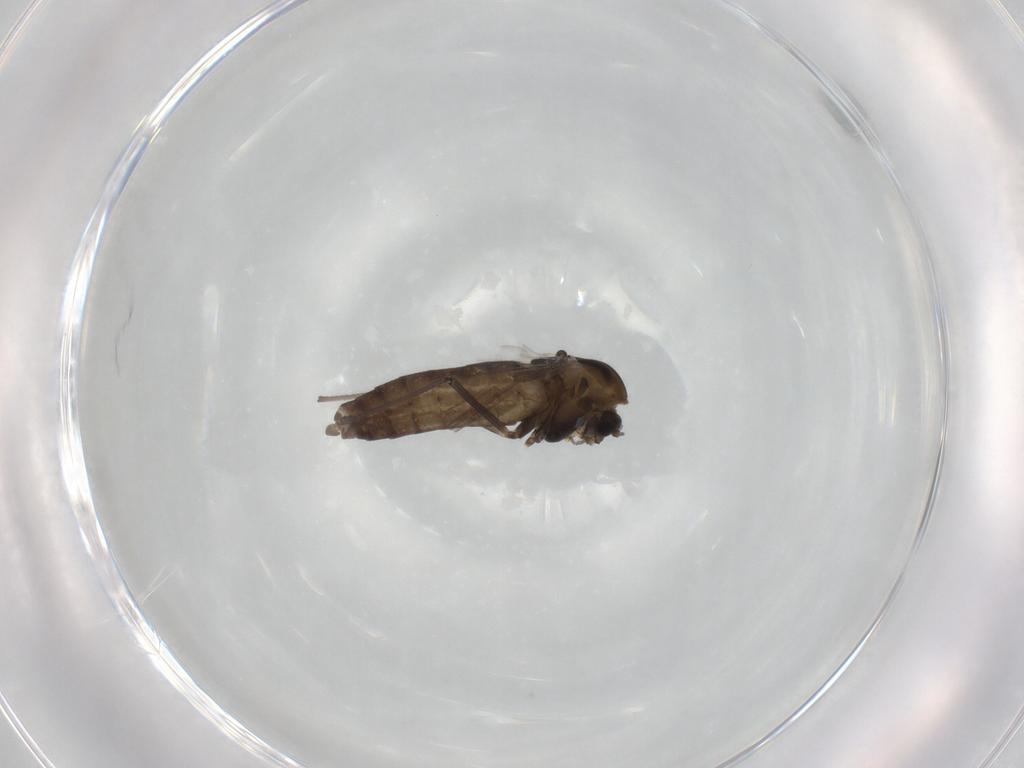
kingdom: Animalia
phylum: Arthropoda
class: Insecta
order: Diptera
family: Chironomidae
